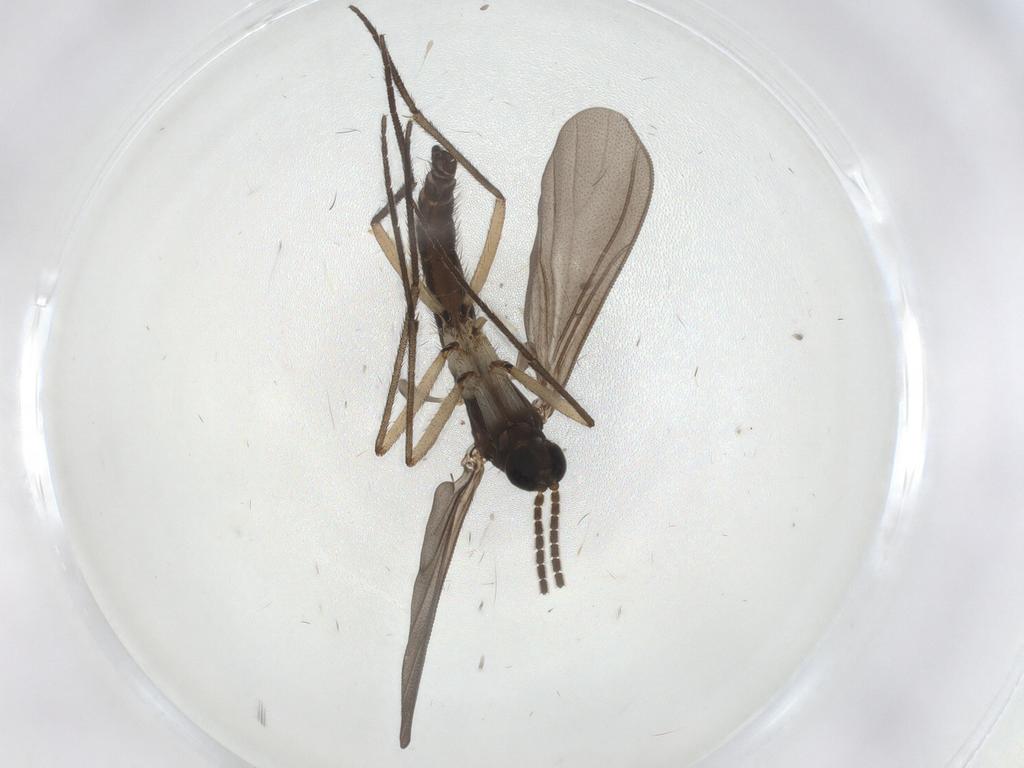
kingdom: Animalia
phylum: Arthropoda
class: Insecta
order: Diptera
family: Sciaridae
